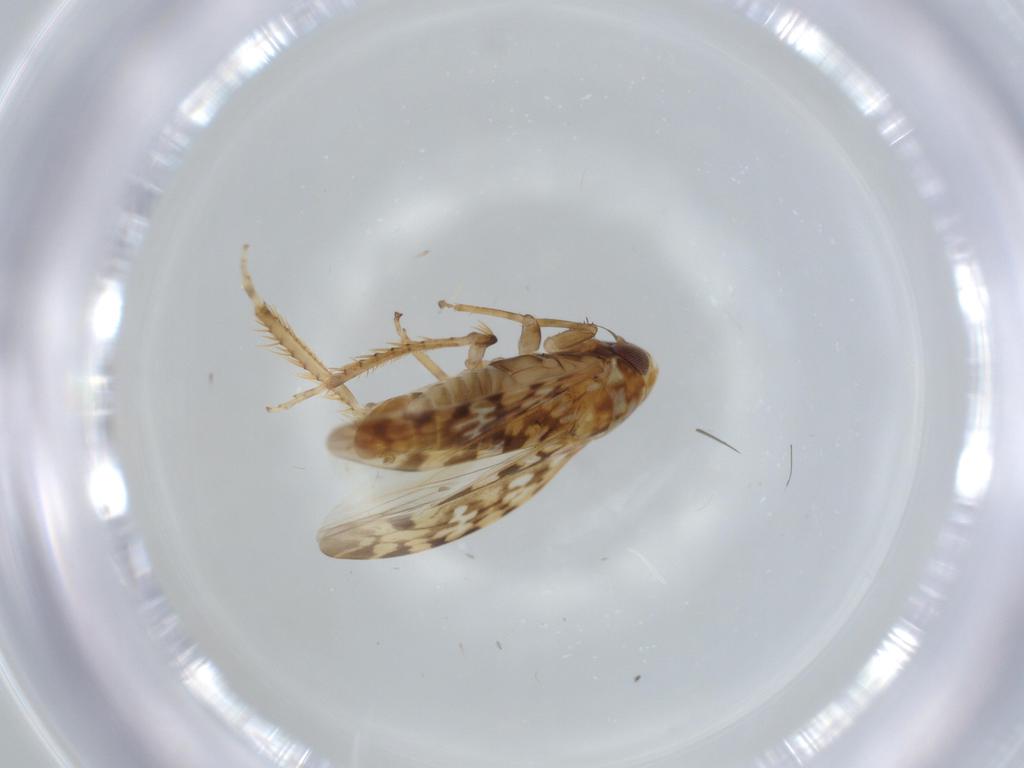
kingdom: Animalia
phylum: Arthropoda
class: Insecta
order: Hemiptera
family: Cicadellidae
